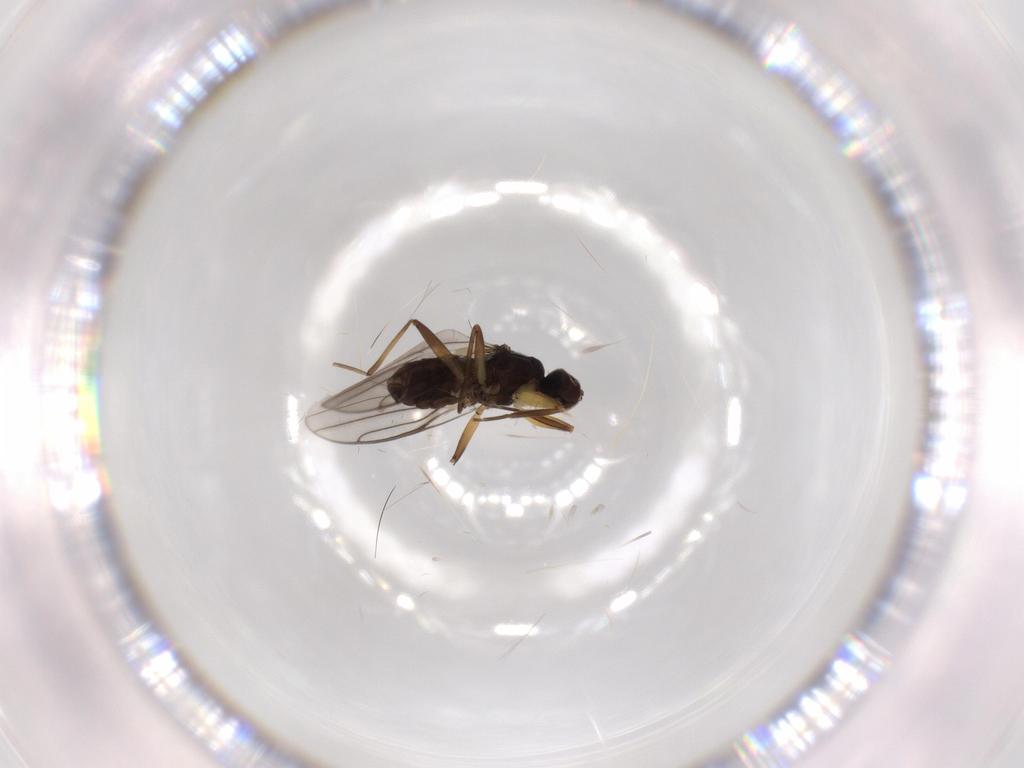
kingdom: Animalia
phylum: Arthropoda
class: Insecta
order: Diptera
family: Hybotidae
